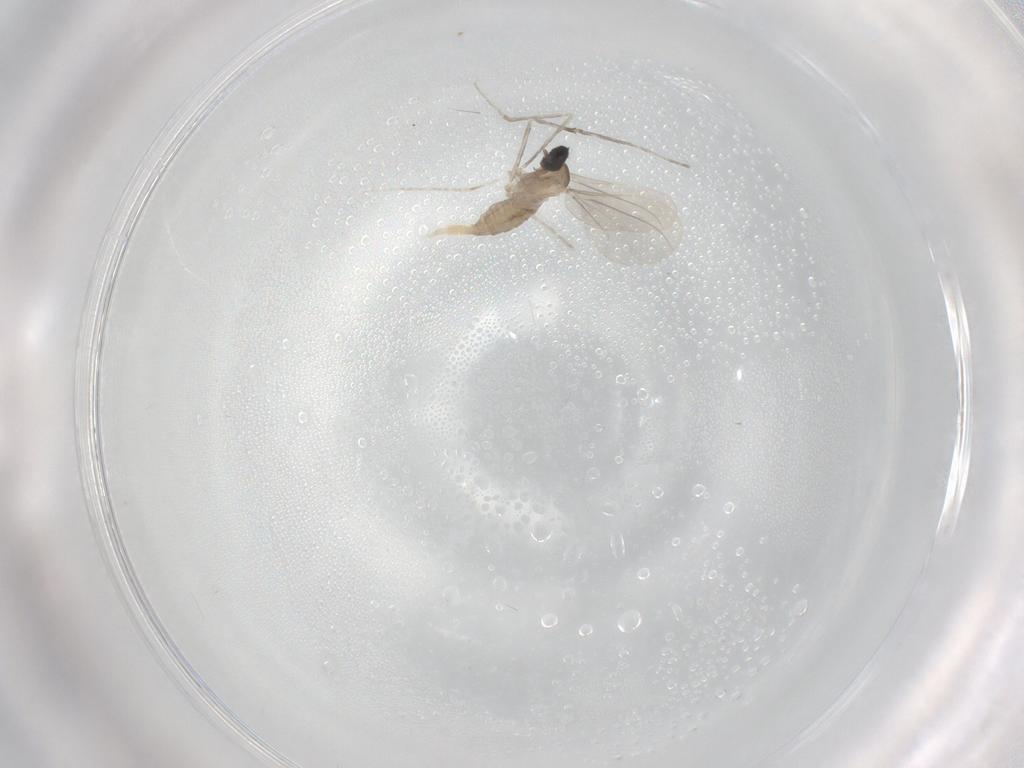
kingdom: Animalia
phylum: Arthropoda
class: Insecta
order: Diptera
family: Cecidomyiidae
